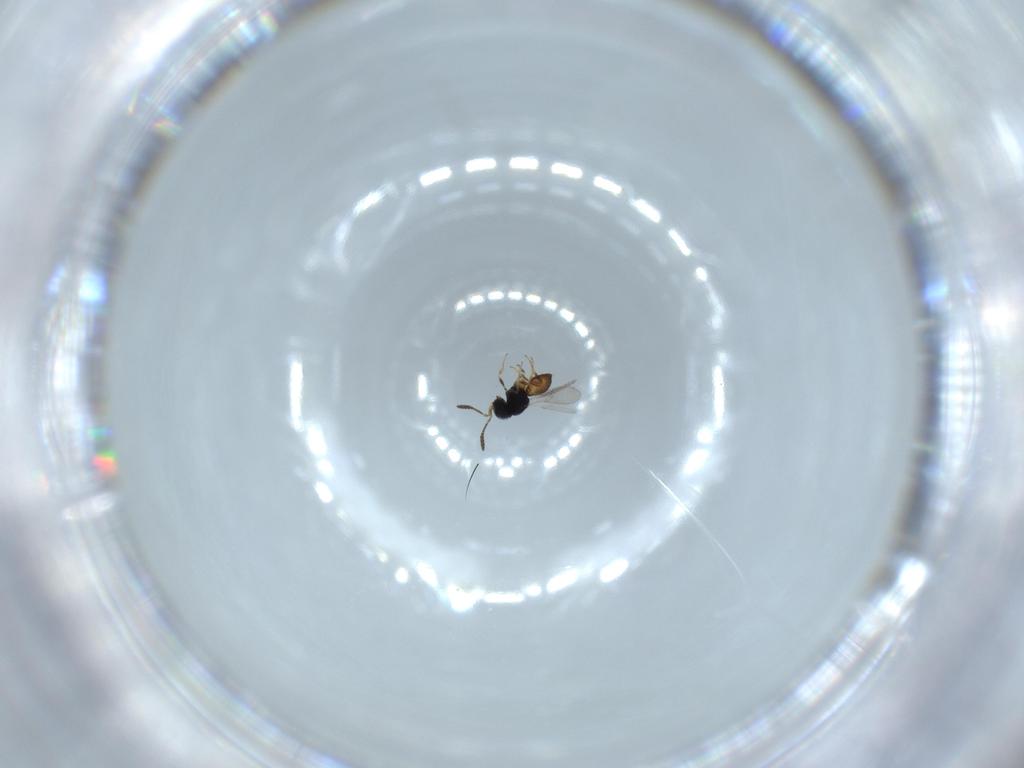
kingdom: Animalia
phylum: Arthropoda
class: Insecta
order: Hymenoptera
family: Scelionidae
